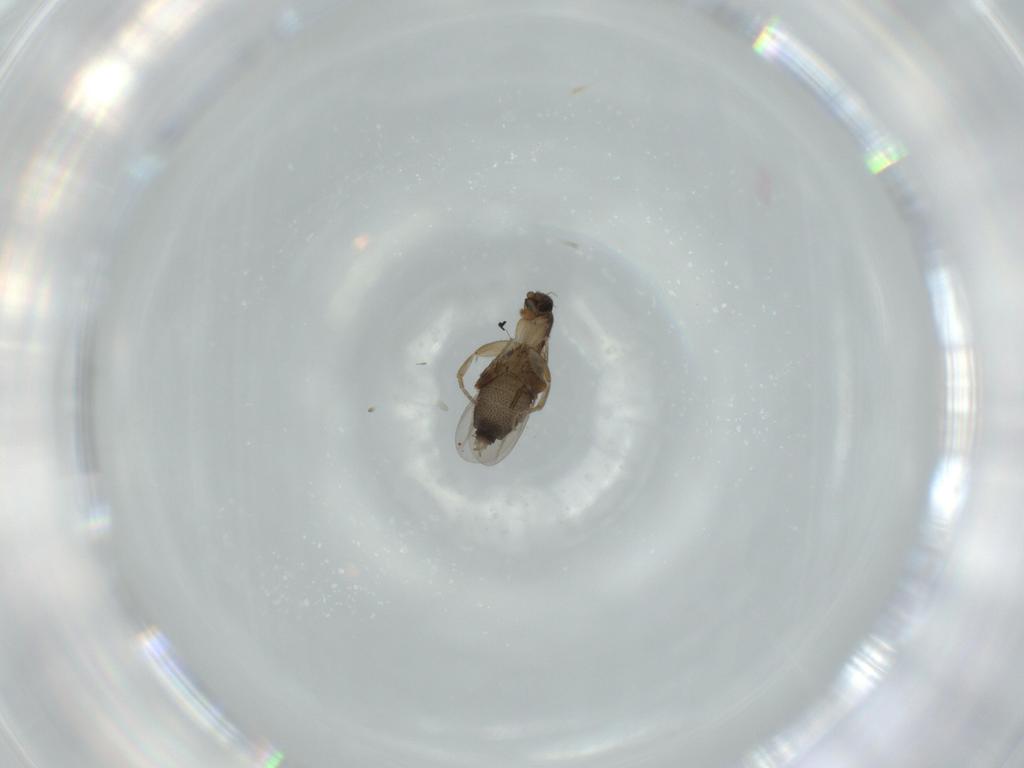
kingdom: Animalia
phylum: Arthropoda
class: Insecta
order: Diptera
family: Phoridae
